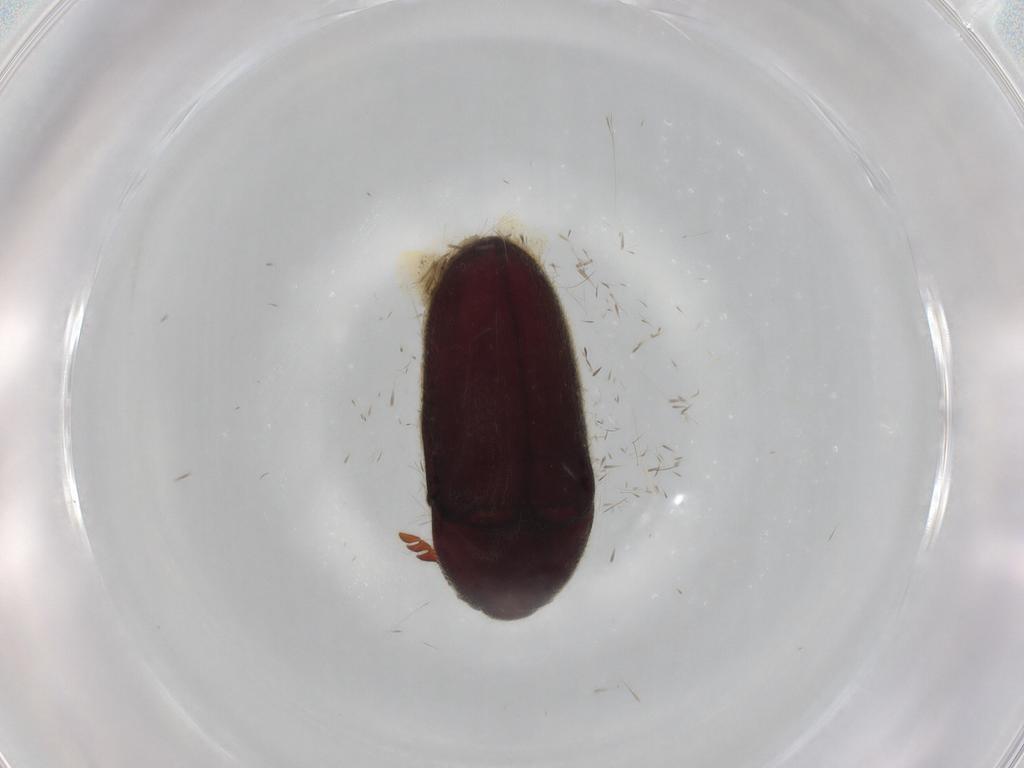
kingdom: Animalia
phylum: Arthropoda
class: Insecta
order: Coleoptera
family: Throscidae
